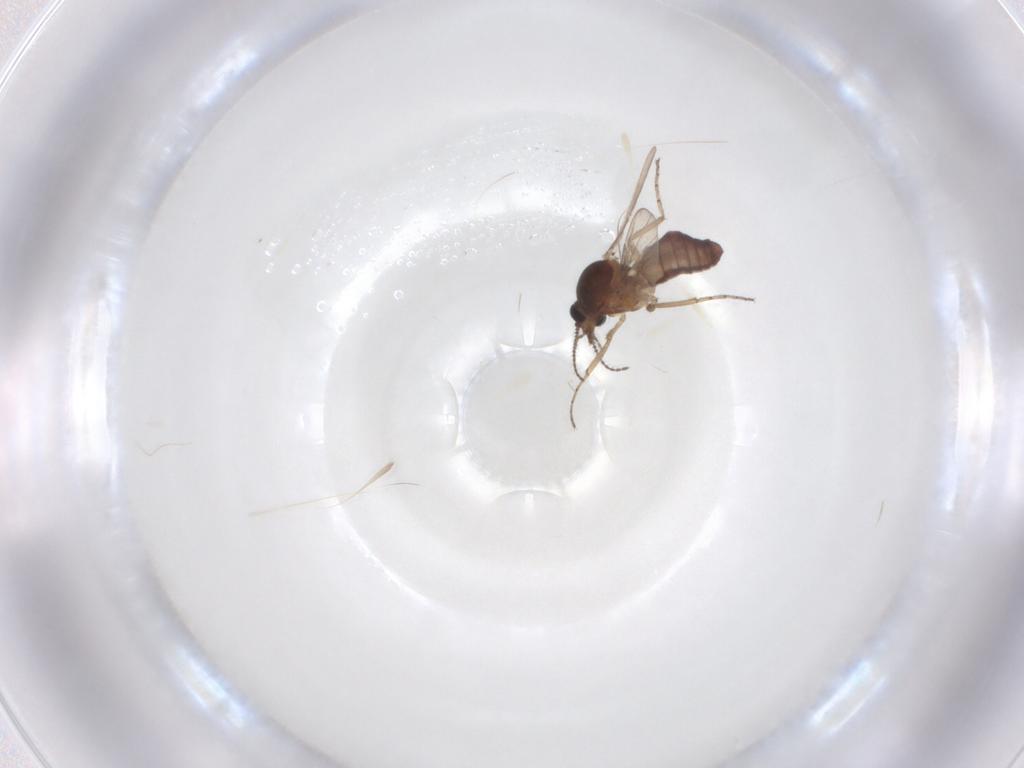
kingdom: Animalia
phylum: Arthropoda
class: Insecta
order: Diptera
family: Ceratopogonidae
